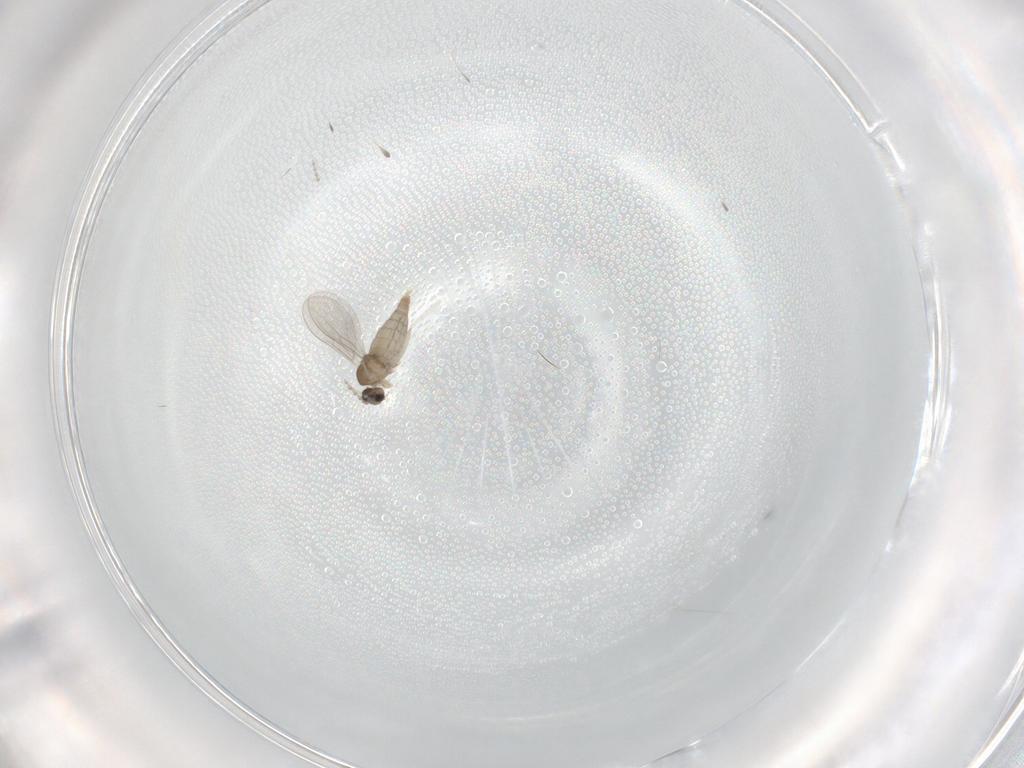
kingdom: Animalia
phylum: Arthropoda
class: Insecta
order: Diptera
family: Cecidomyiidae
